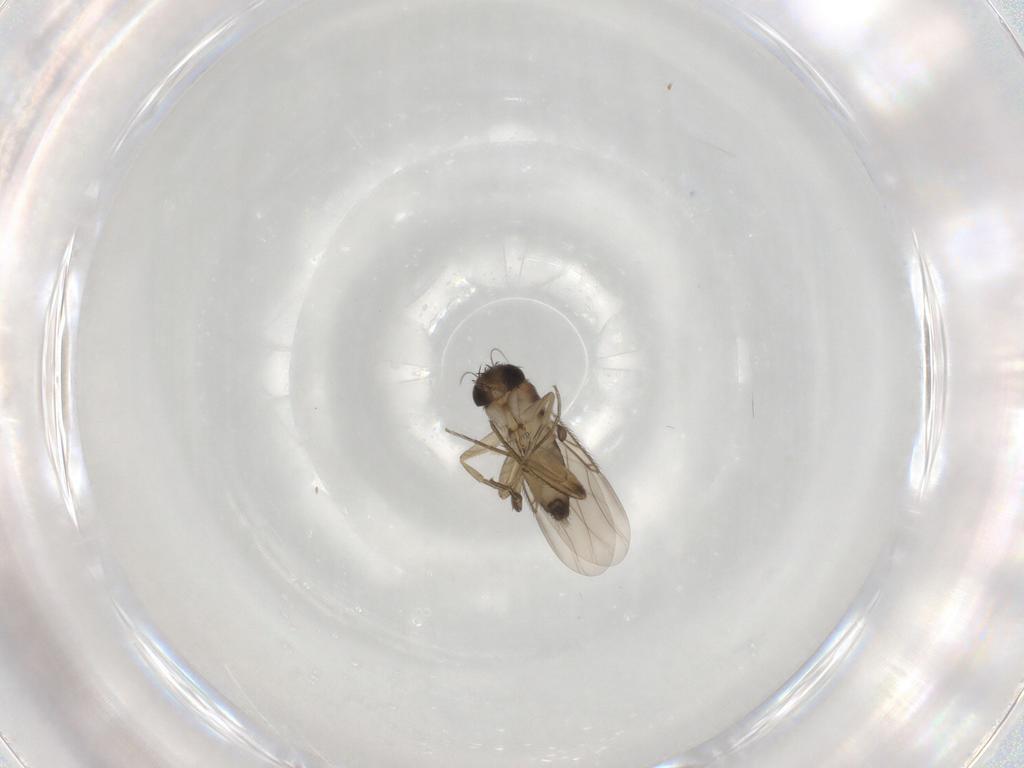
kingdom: Animalia
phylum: Arthropoda
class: Insecta
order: Diptera
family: Phoridae
